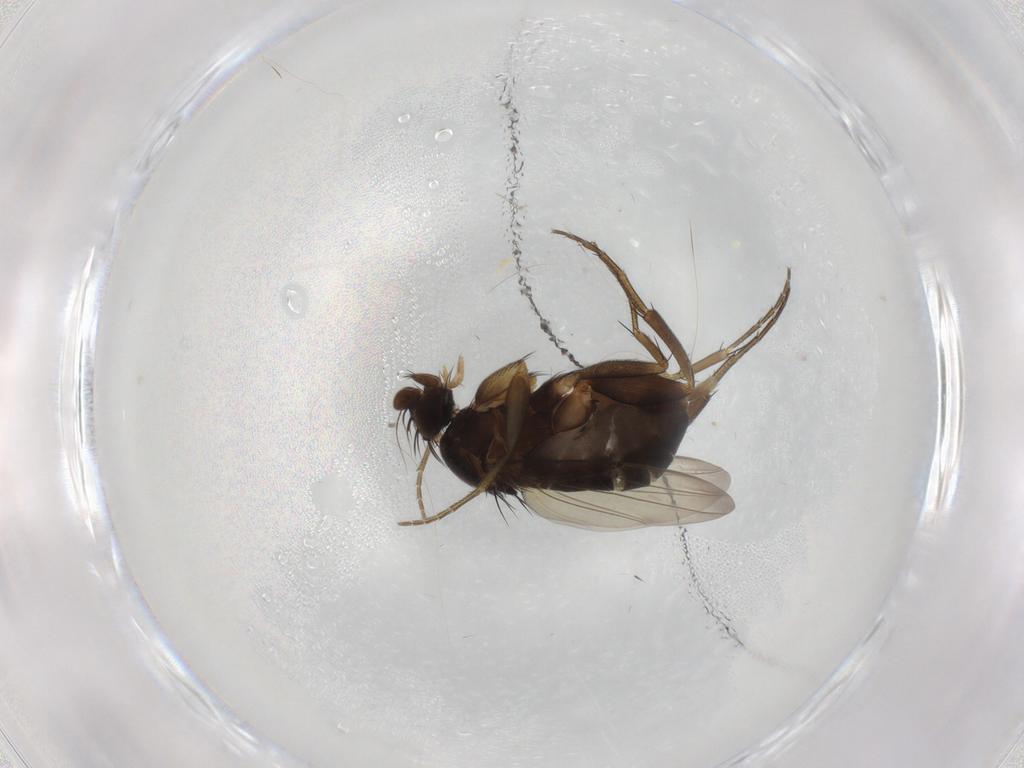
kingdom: Animalia
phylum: Arthropoda
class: Insecta
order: Diptera
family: Phoridae
